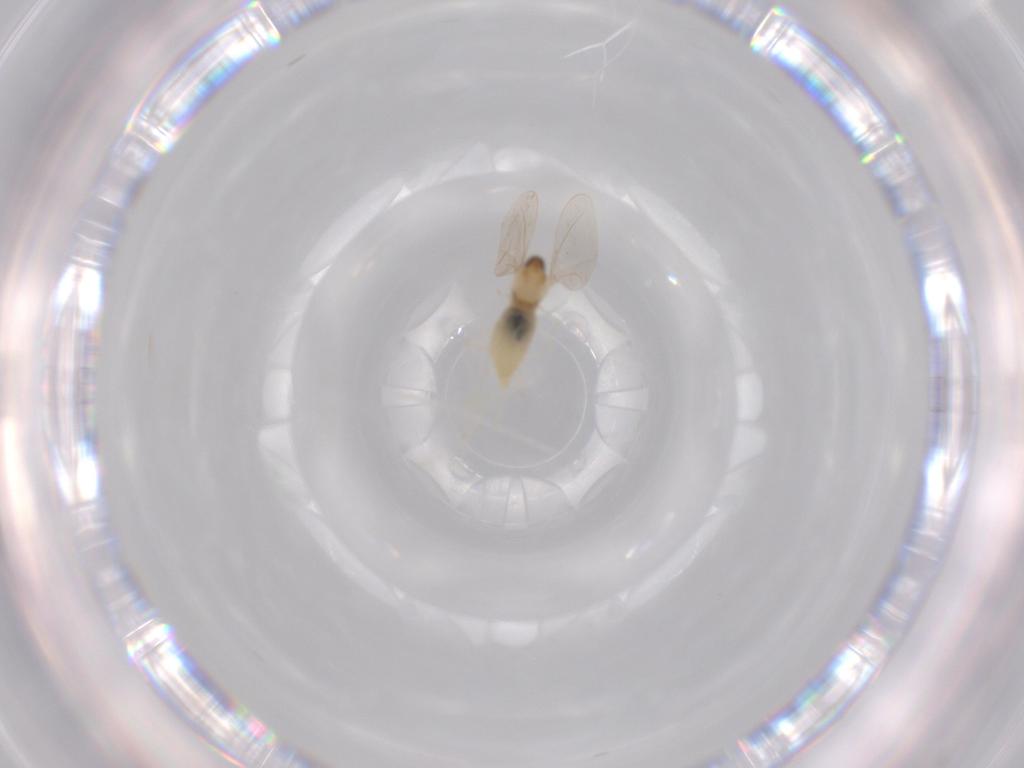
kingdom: Animalia
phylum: Arthropoda
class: Insecta
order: Diptera
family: Sciaridae
